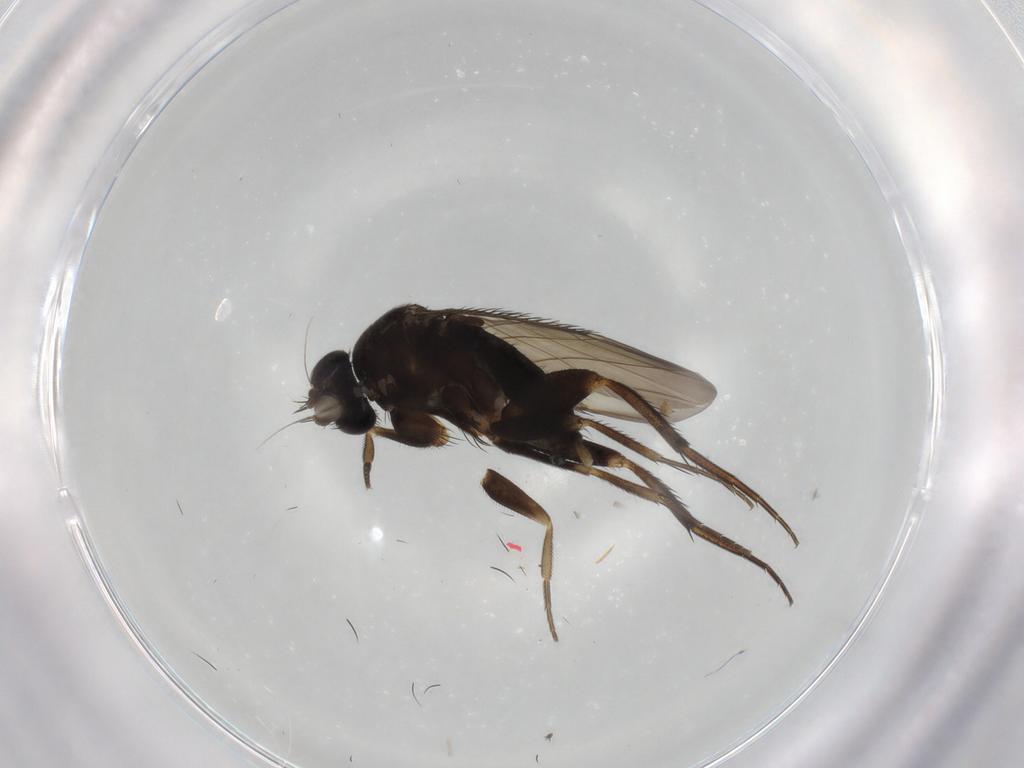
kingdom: Animalia
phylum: Arthropoda
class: Insecta
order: Diptera
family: Phoridae
